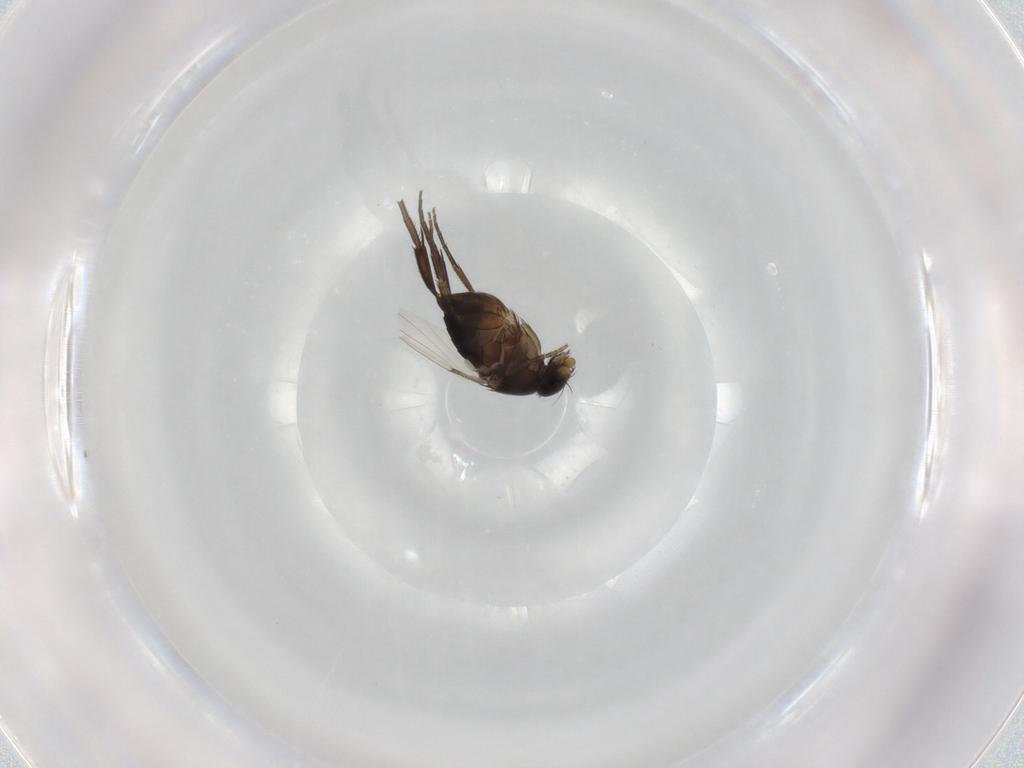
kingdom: Animalia
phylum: Arthropoda
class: Insecta
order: Diptera
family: Phoridae
